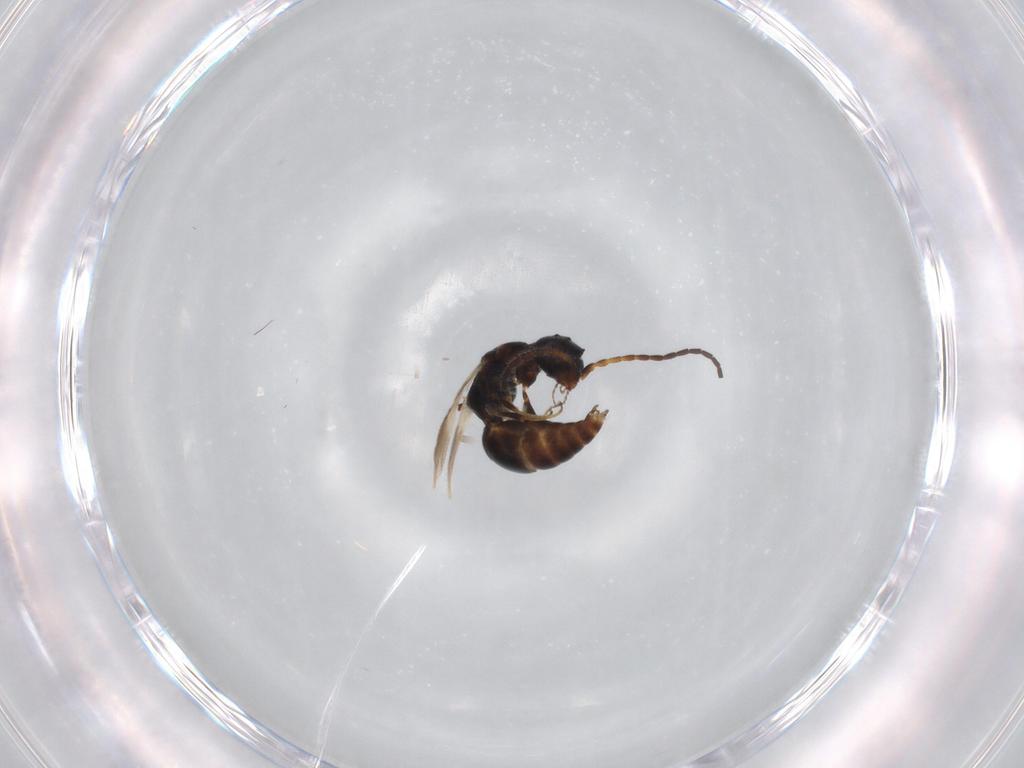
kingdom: Animalia
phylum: Arthropoda
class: Insecta
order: Hymenoptera
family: Bethylidae
